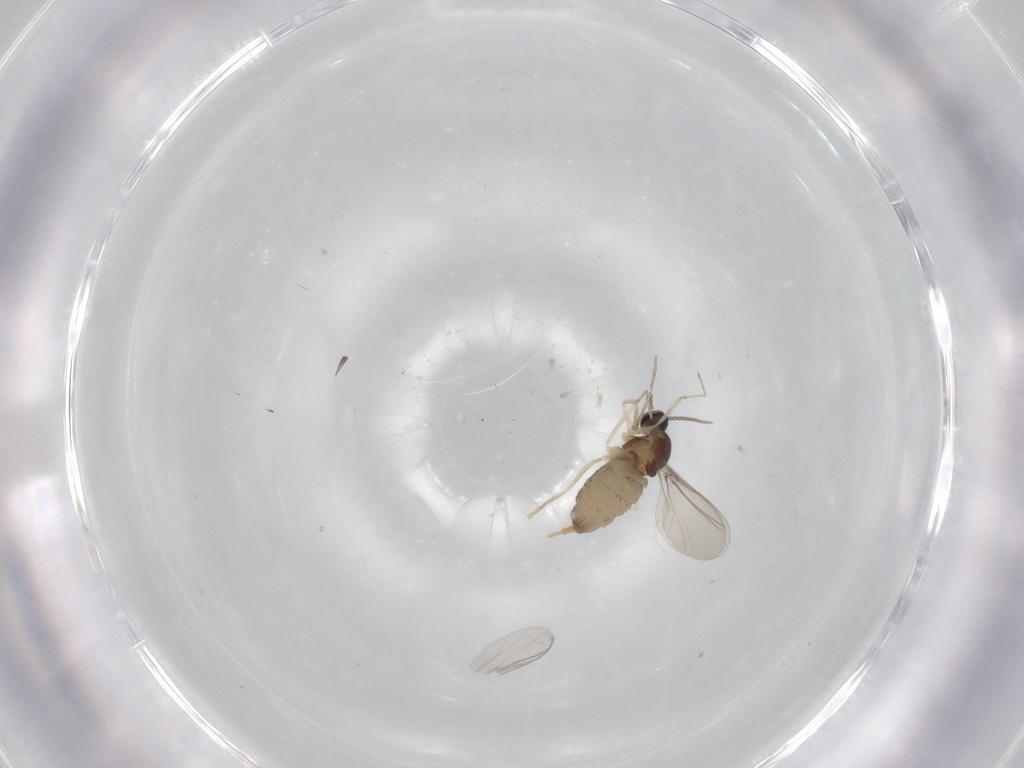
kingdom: Animalia
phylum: Arthropoda
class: Insecta
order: Diptera
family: Cecidomyiidae
